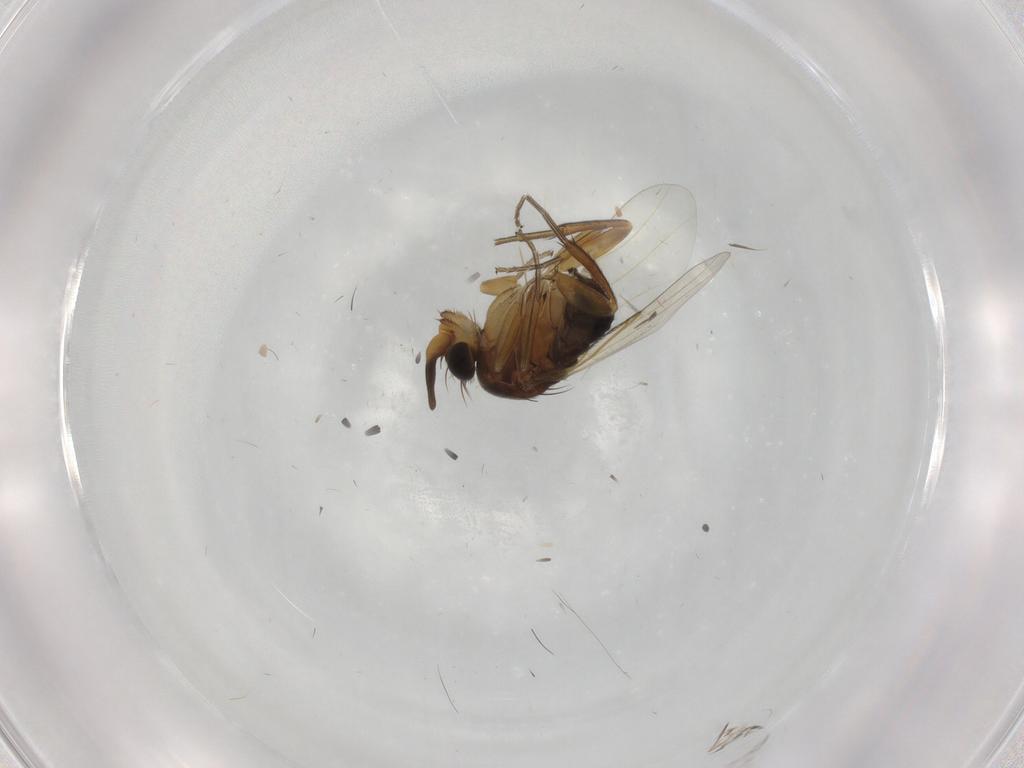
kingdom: Animalia
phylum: Arthropoda
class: Insecta
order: Diptera
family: Phoridae
